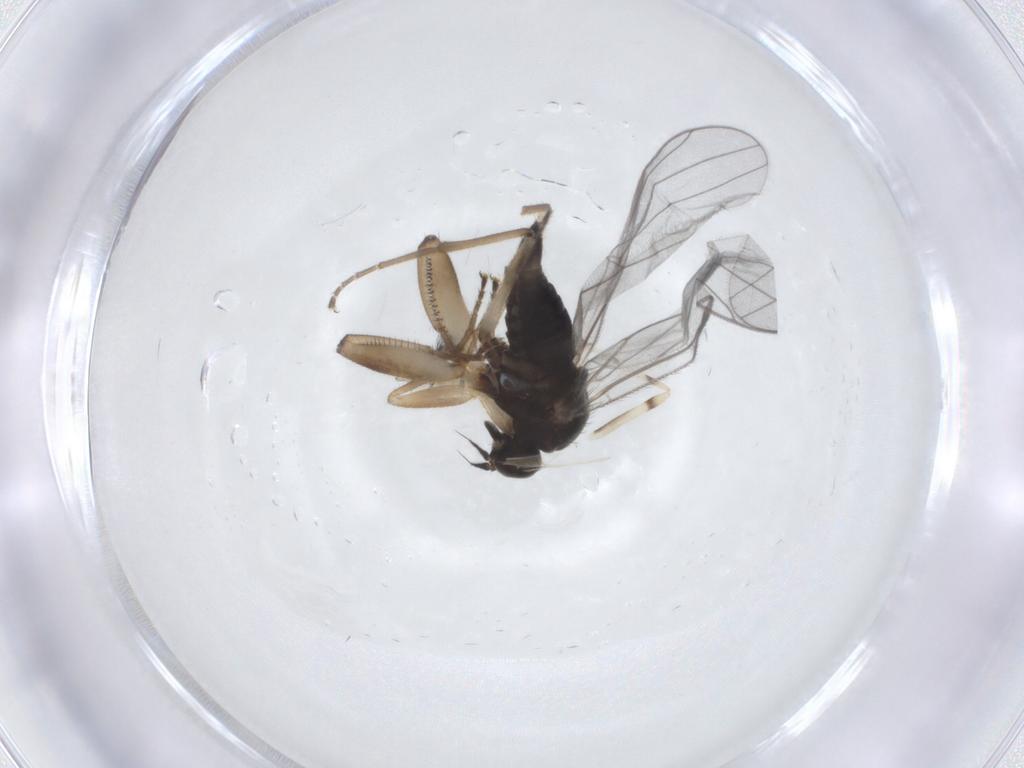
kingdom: Animalia
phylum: Arthropoda
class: Insecta
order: Diptera
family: Hybotidae
